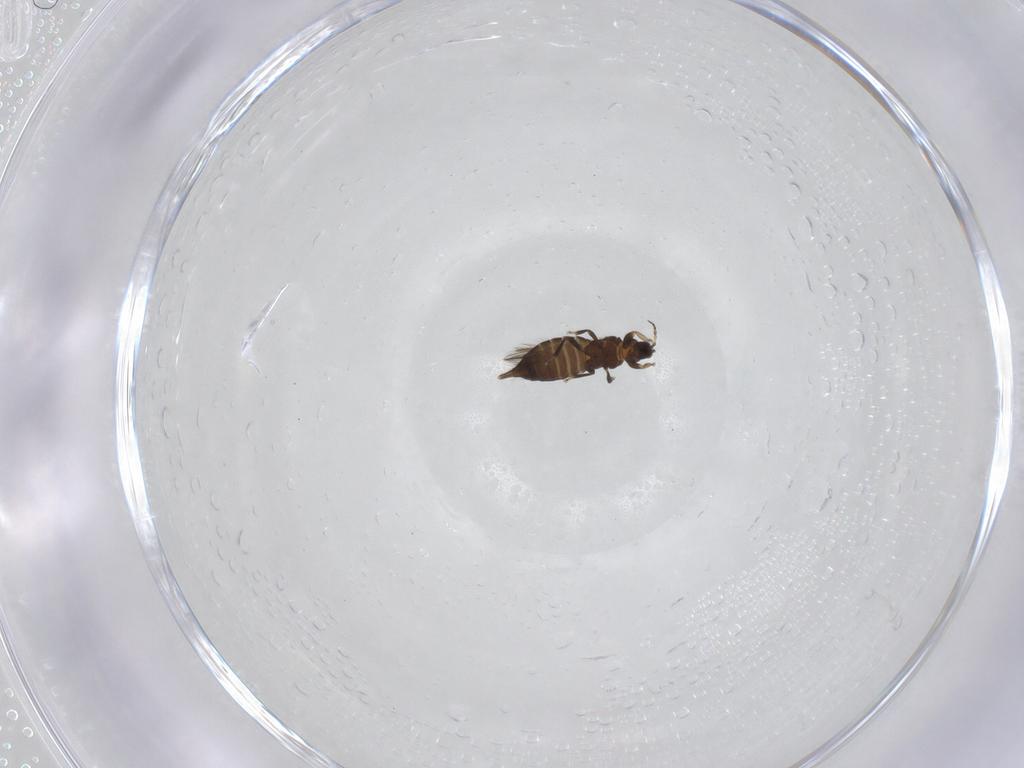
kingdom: Animalia
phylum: Arthropoda
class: Insecta
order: Thysanoptera
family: Heterothripidae
